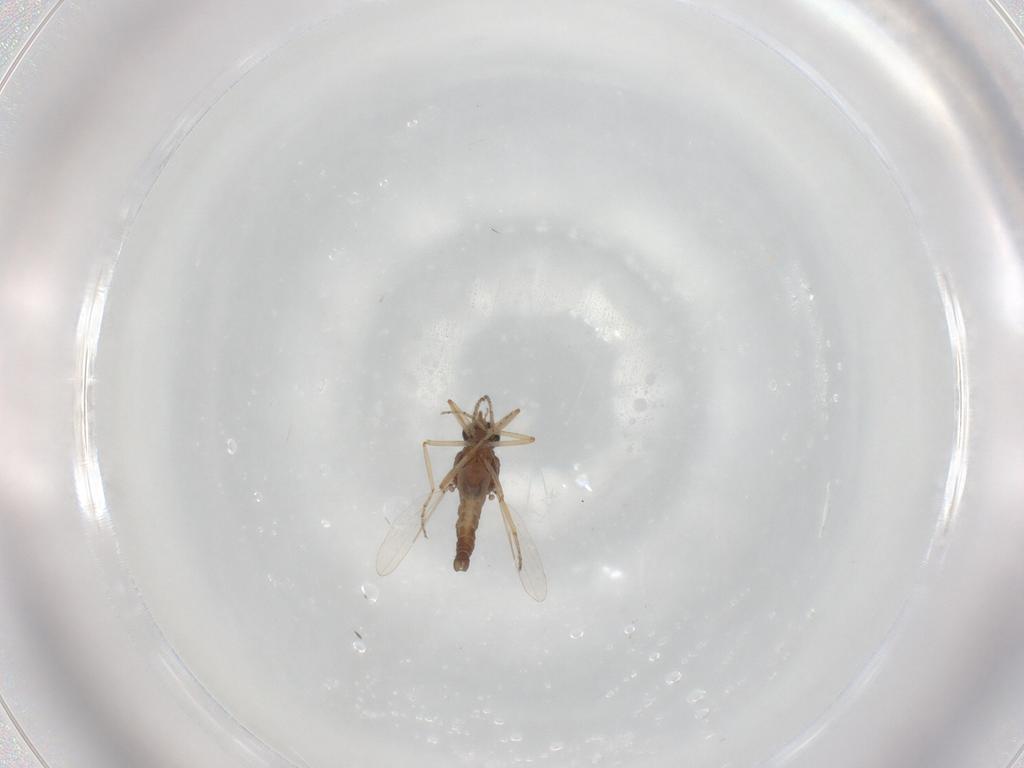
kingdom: Animalia
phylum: Arthropoda
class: Insecta
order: Diptera
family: Ceratopogonidae
